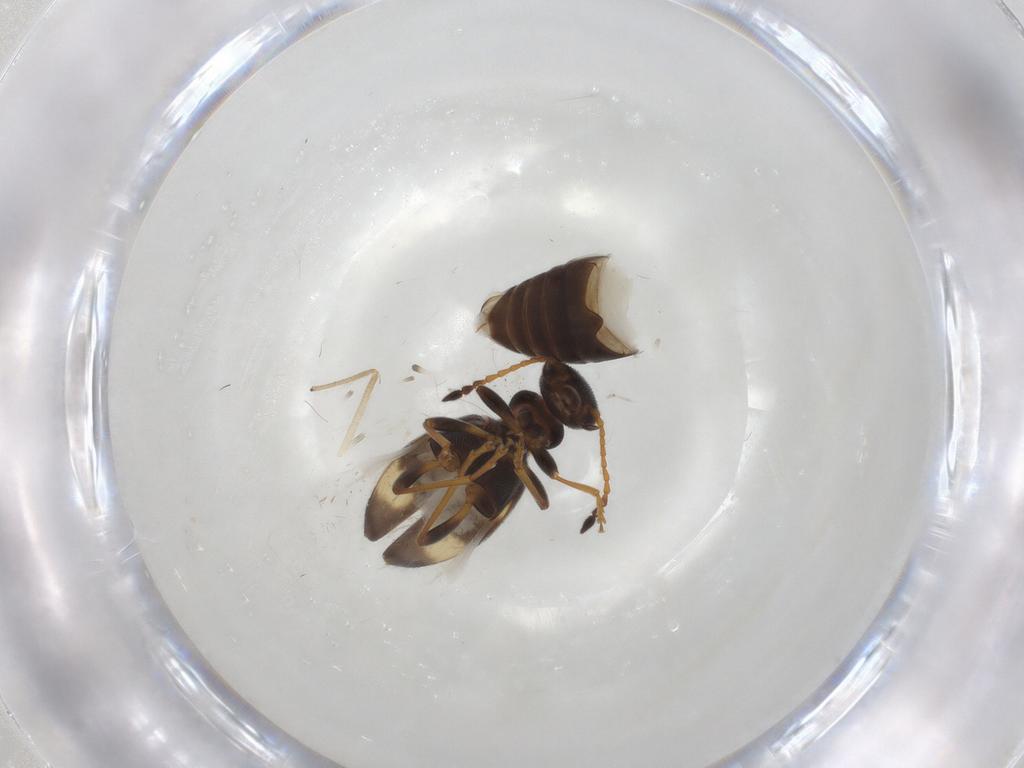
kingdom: Animalia
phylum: Arthropoda
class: Insecta
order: Coleoptera
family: Anthicidae
